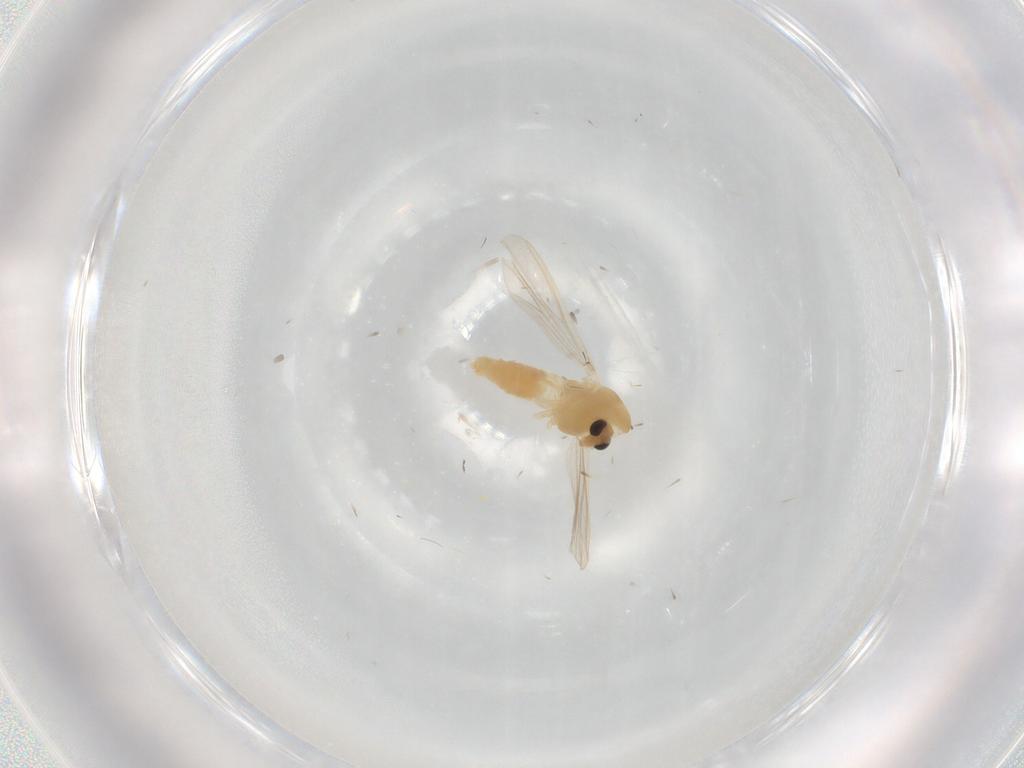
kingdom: Animalia
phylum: Arthropoda
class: Insecta
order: Diptera
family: Chironomidae
